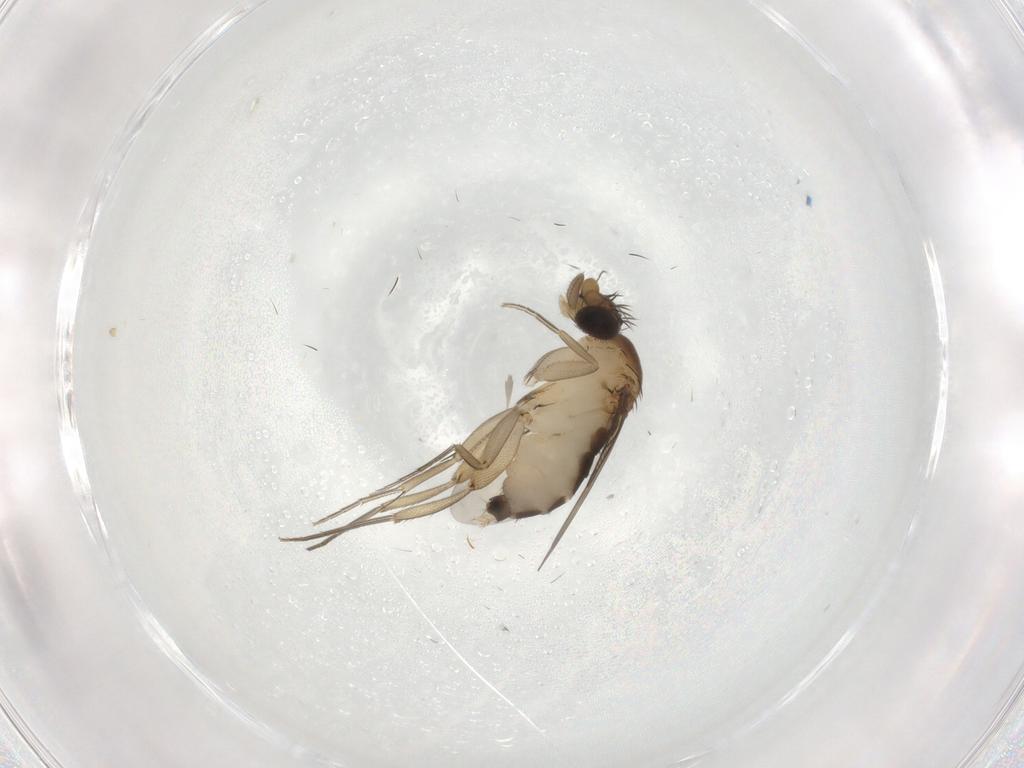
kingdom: Animalia
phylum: Arthropoda
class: Insecta
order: Diptera
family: Phoridae
